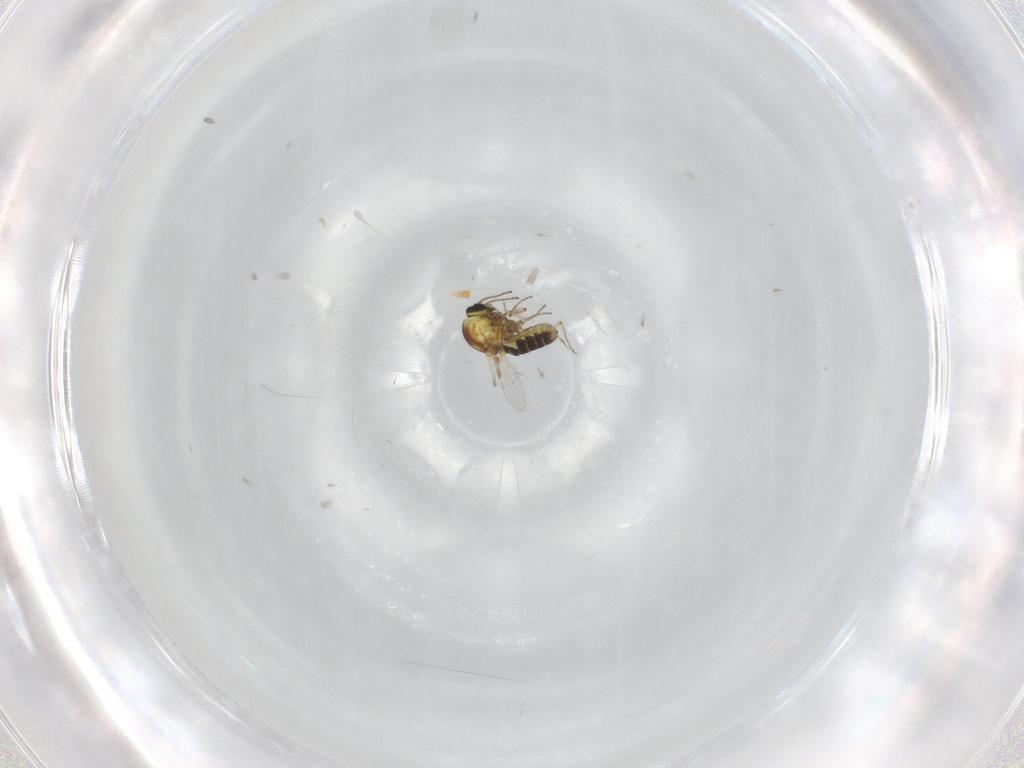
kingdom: Animalia
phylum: Arthropoda
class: Insecta
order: Diptera
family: Ceratopogonidae
